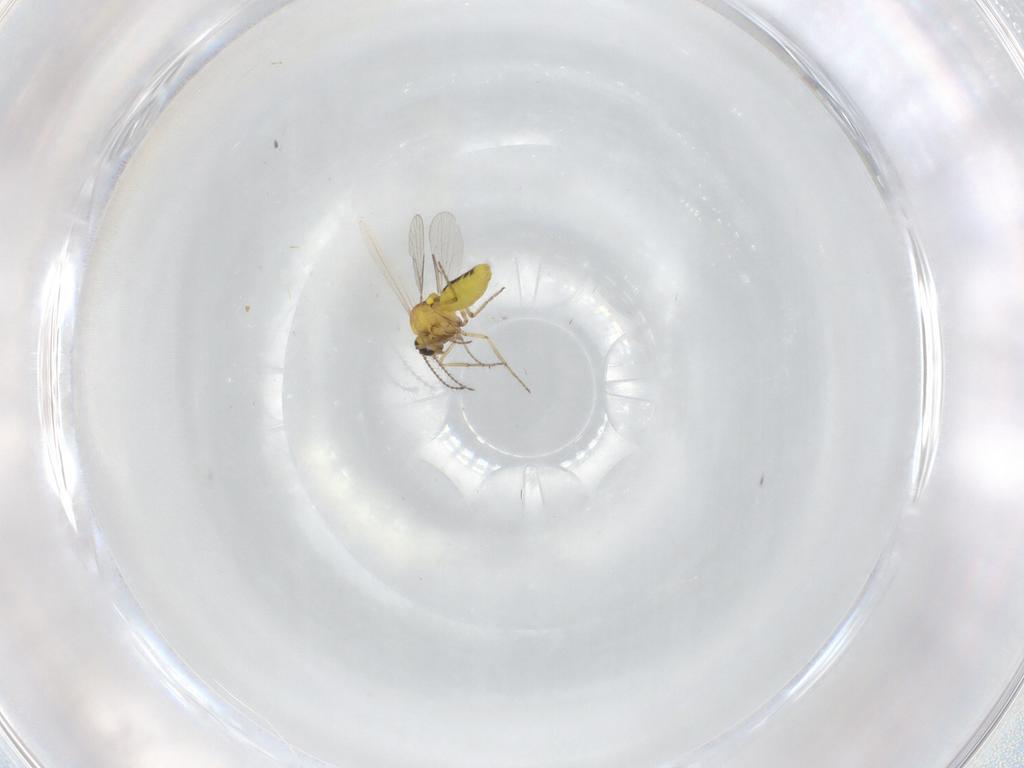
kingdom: Animalia
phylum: Arthropoda
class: Insecta
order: Diptera
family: Ceratopogonidae
